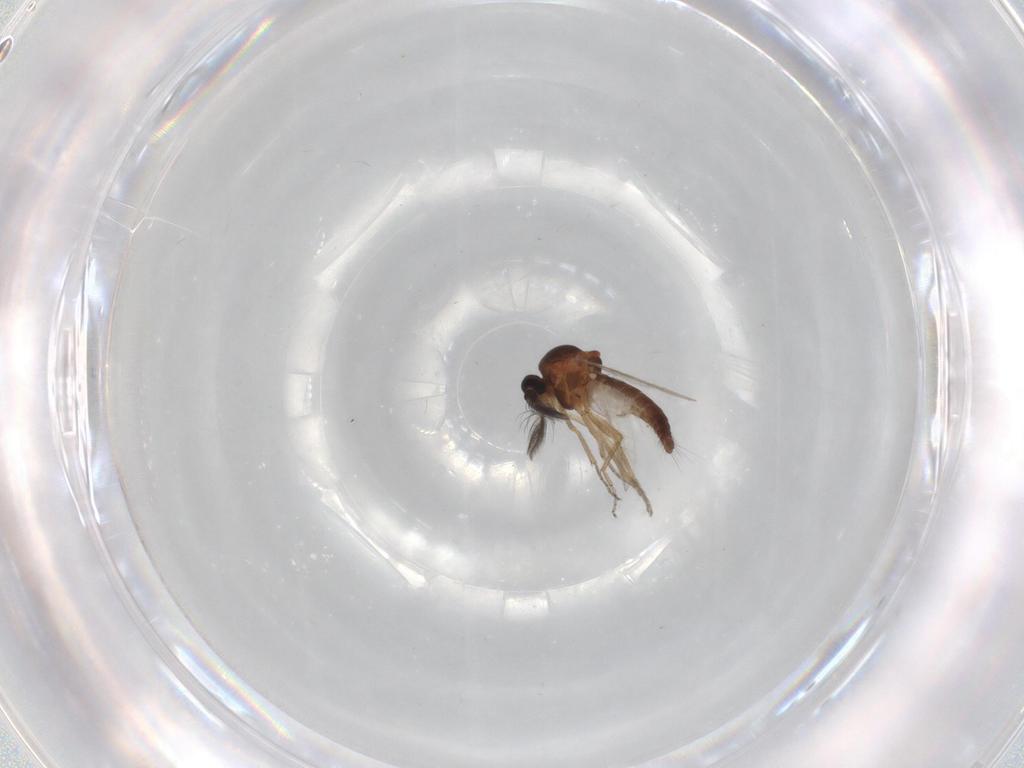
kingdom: Animalia
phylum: Arthropoda
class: Insecta
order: Diptera
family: Ceratopogonidae
